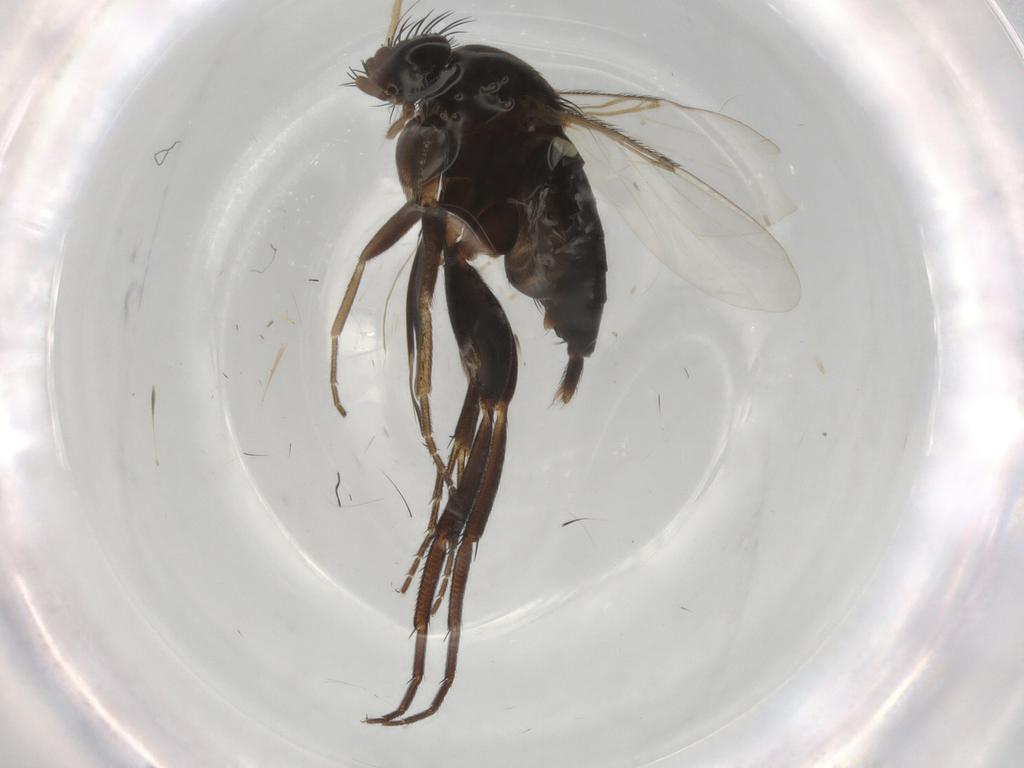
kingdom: Animalia
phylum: Arthropoda
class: Insecta
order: Diptera
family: Phoridae
